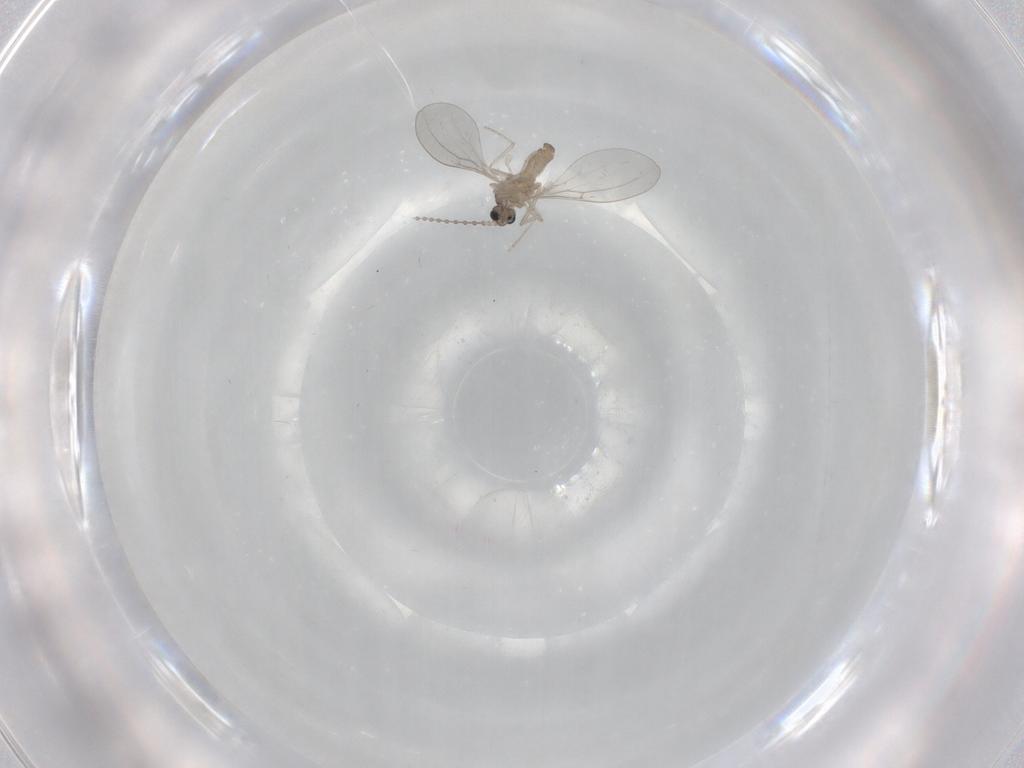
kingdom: Animalia
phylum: Arthropoda
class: Insecta
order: Diptera
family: Cecidomyiidae
